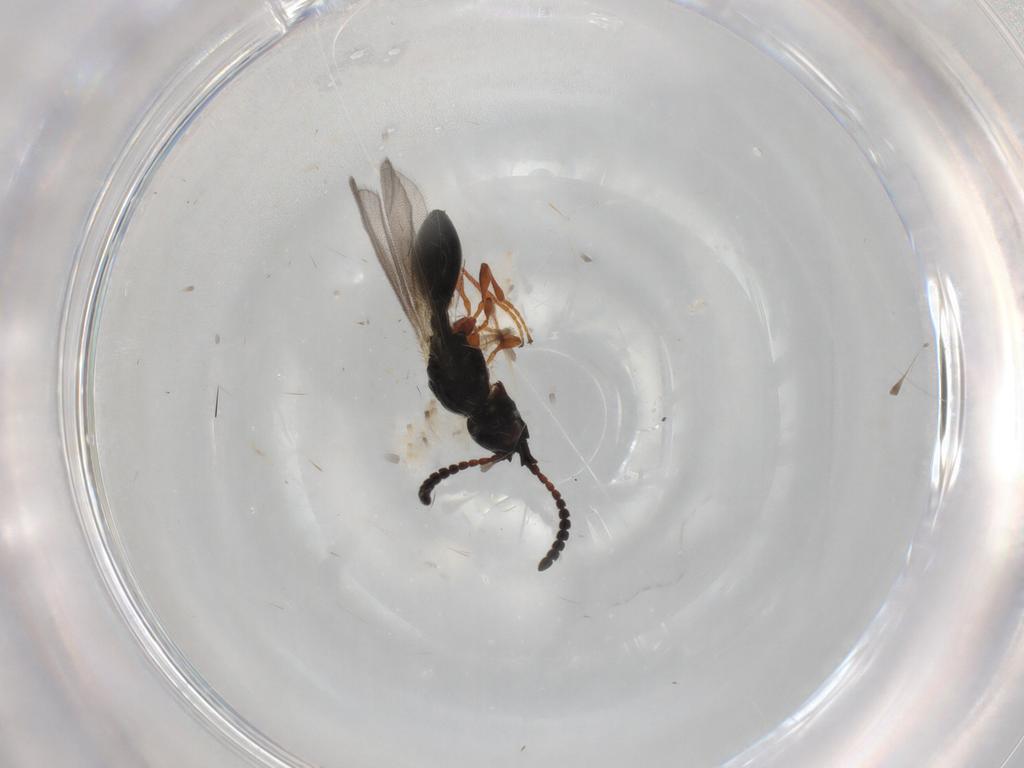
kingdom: Animalia
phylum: Arthropoda
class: Insecta
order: Hymenoptera
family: Diapriidae
